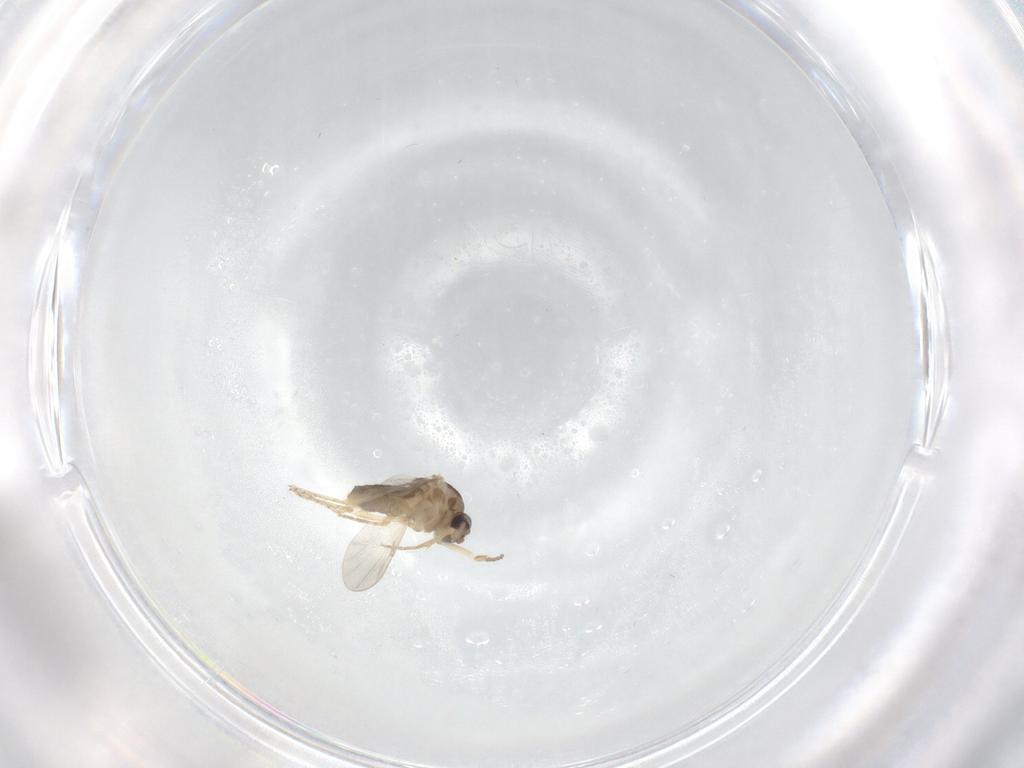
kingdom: Animalia
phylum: Arthropoda
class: Insecta
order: Diptera
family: Ceratopogonidae
